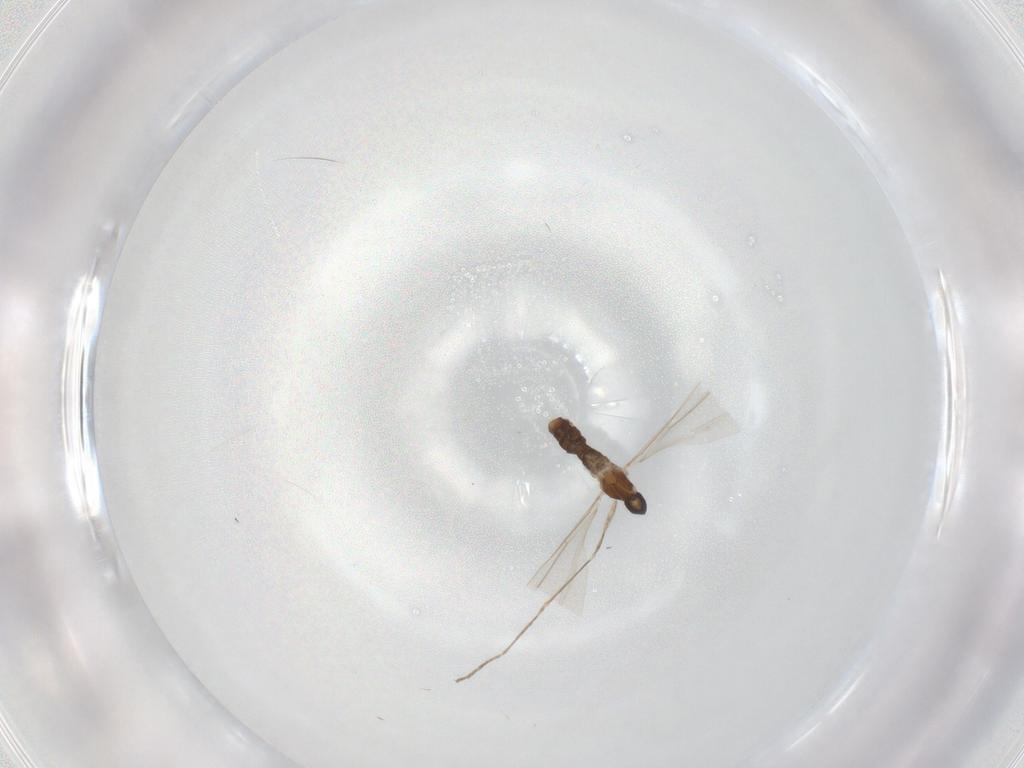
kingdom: Animalia
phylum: Arthropoda
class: Insecta
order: Diptera
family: Cecidomyiidae
